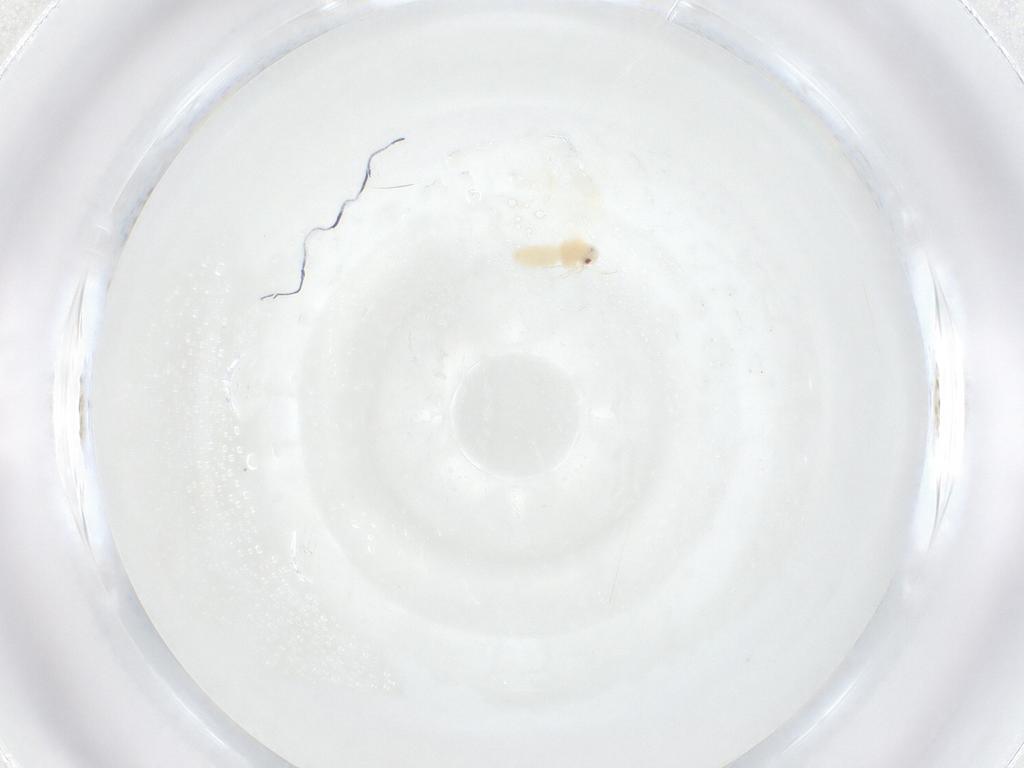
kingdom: Animalia
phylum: Arthropoda
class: Insecta
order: Hemiptera
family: Aleyrodidae
